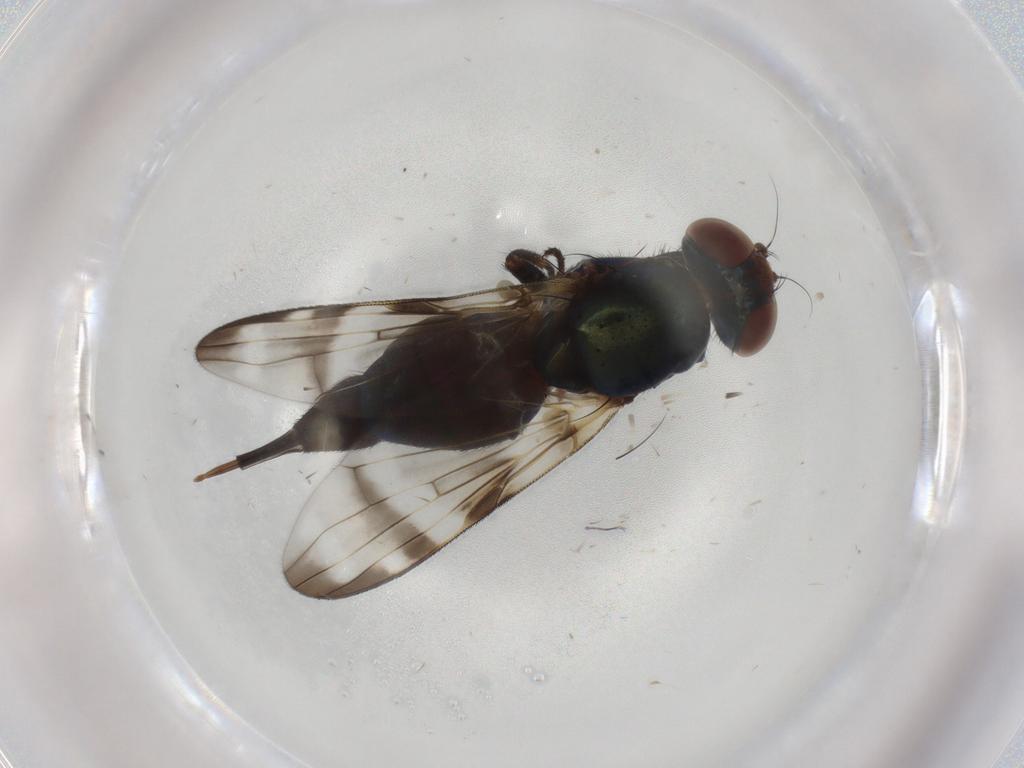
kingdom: Animalia
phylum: Arthropoda
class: Insecta
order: Diptera
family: Ulidiidae
